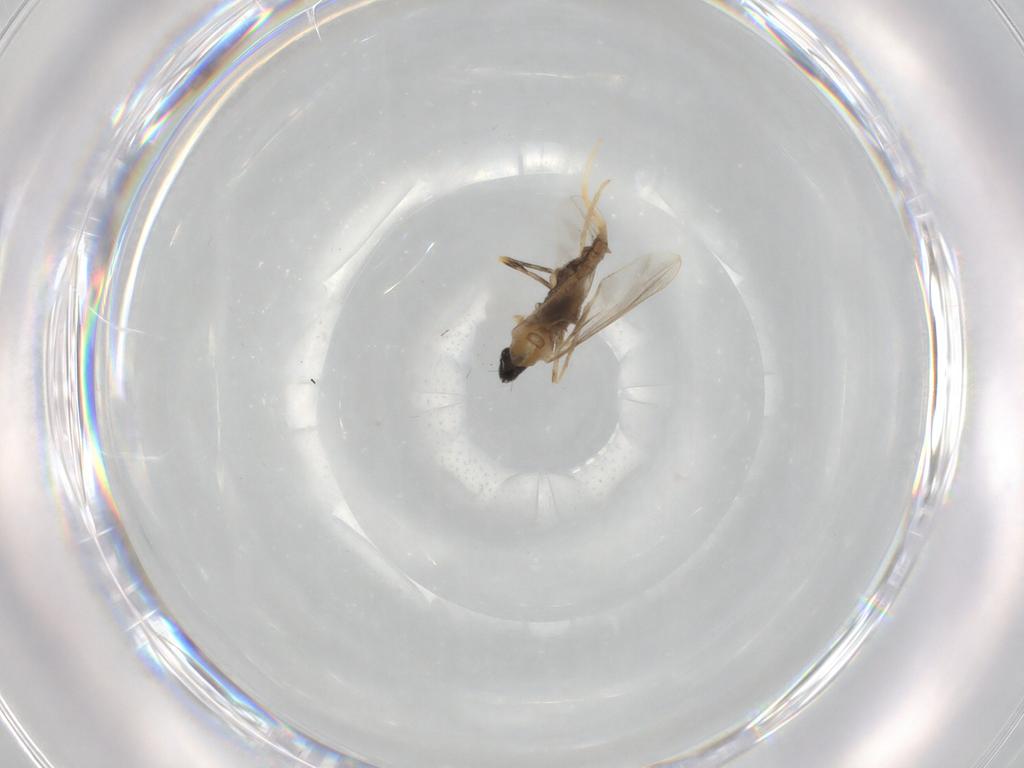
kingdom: Animalia
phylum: Arthropoda
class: Insecta
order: Diptera
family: Chironomidae
